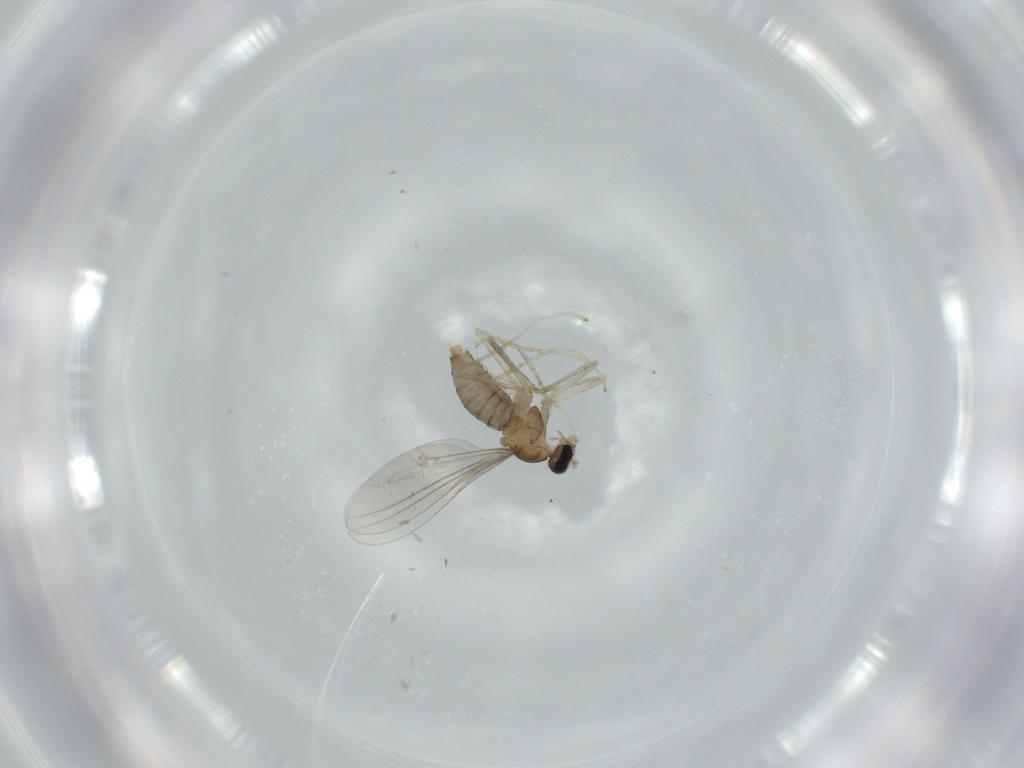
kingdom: Animalia
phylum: Arthropoda
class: Insecta
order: Diptera
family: Cecidomyiidae
